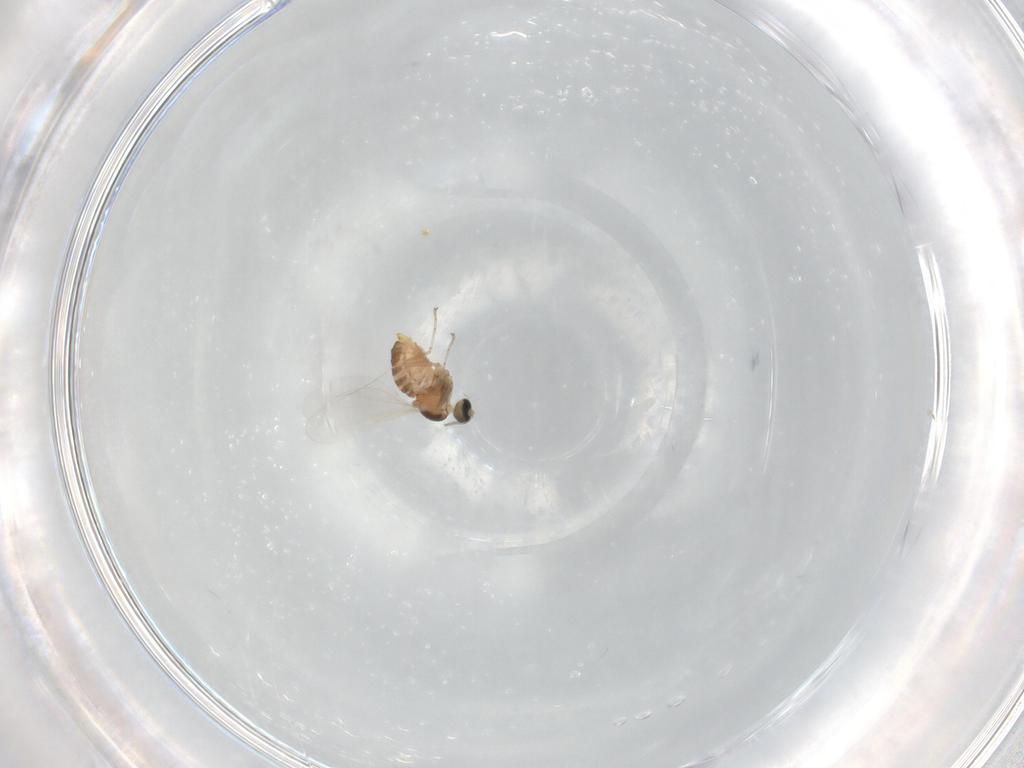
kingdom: Animalia
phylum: Arthropoda
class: Insecta
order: Diptera
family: Cecidomyiidae
